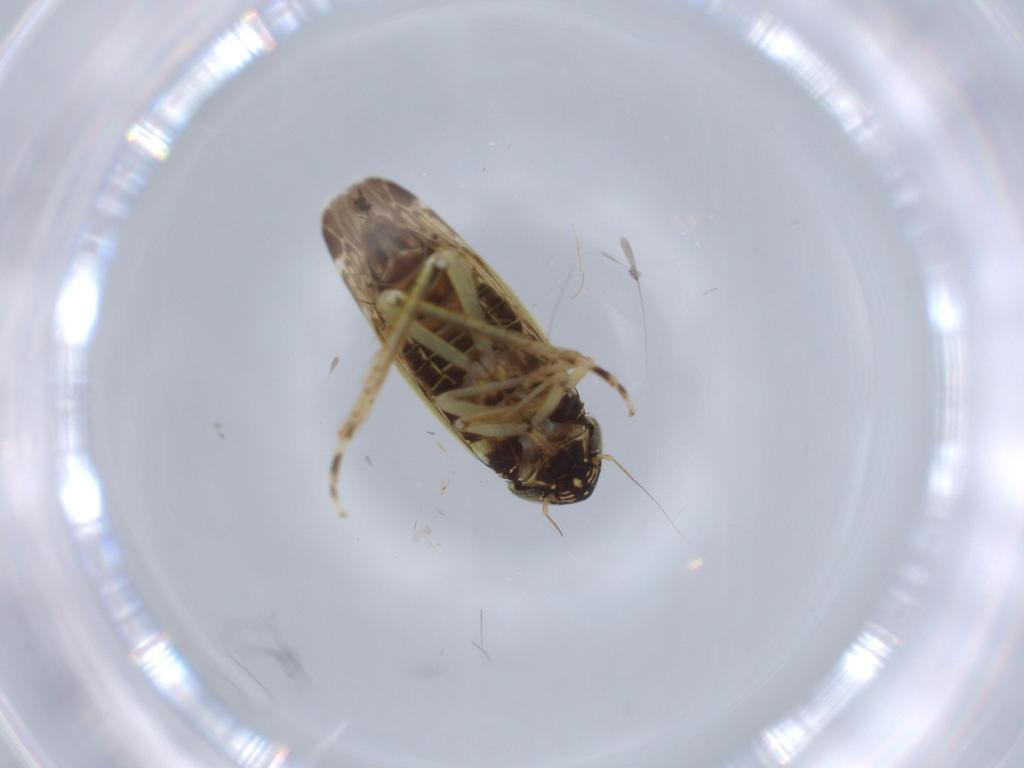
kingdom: Animalia
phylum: Arthropoda
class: Insecta
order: Hemiptera
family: Cicadellidae
